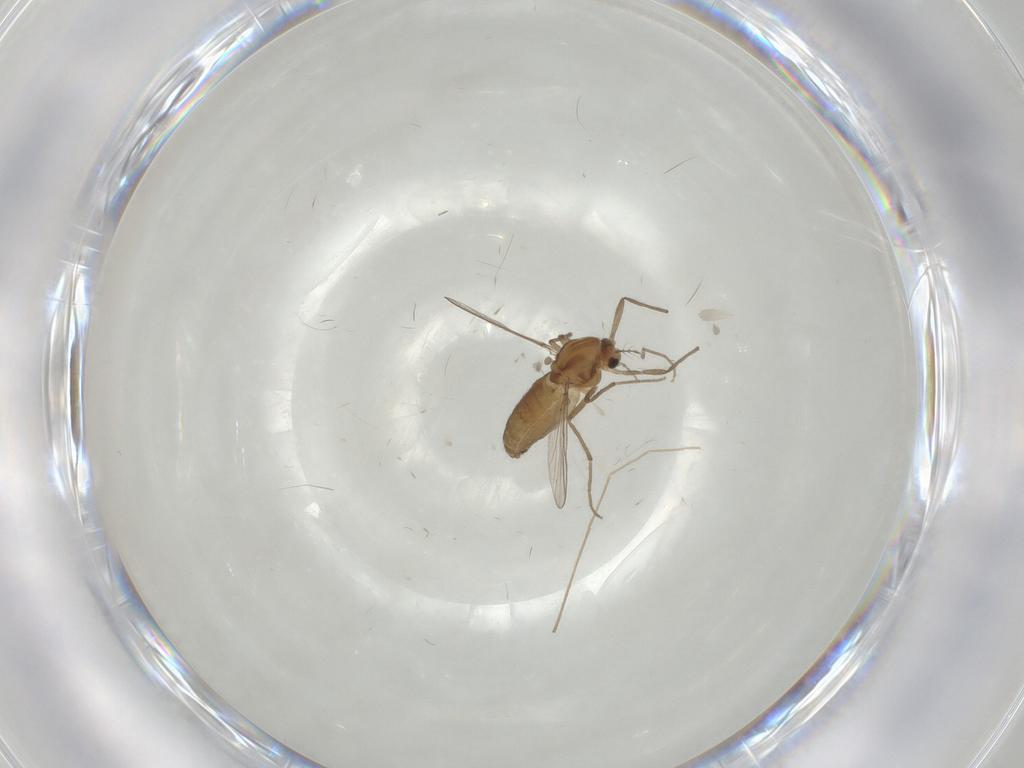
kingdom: Animalia
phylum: Arthropoda
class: Insecta
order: Diptera
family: Chironomidae
